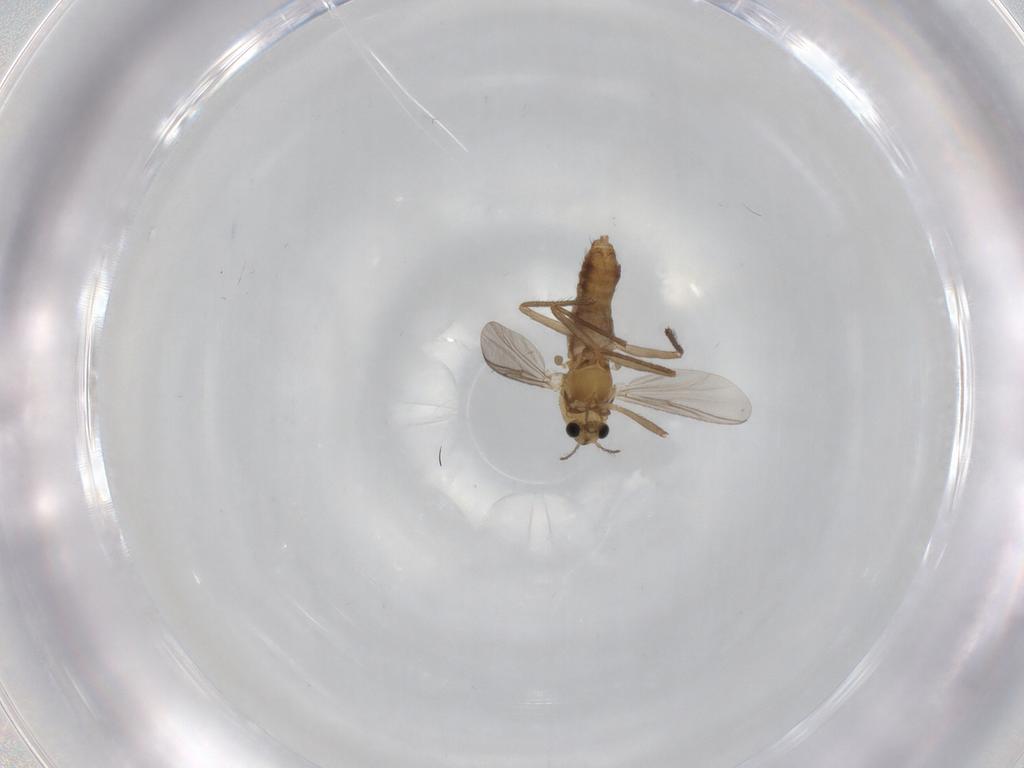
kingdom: Animalia
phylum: Arthropoda
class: Insecta
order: Diptera
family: Chironomidae
